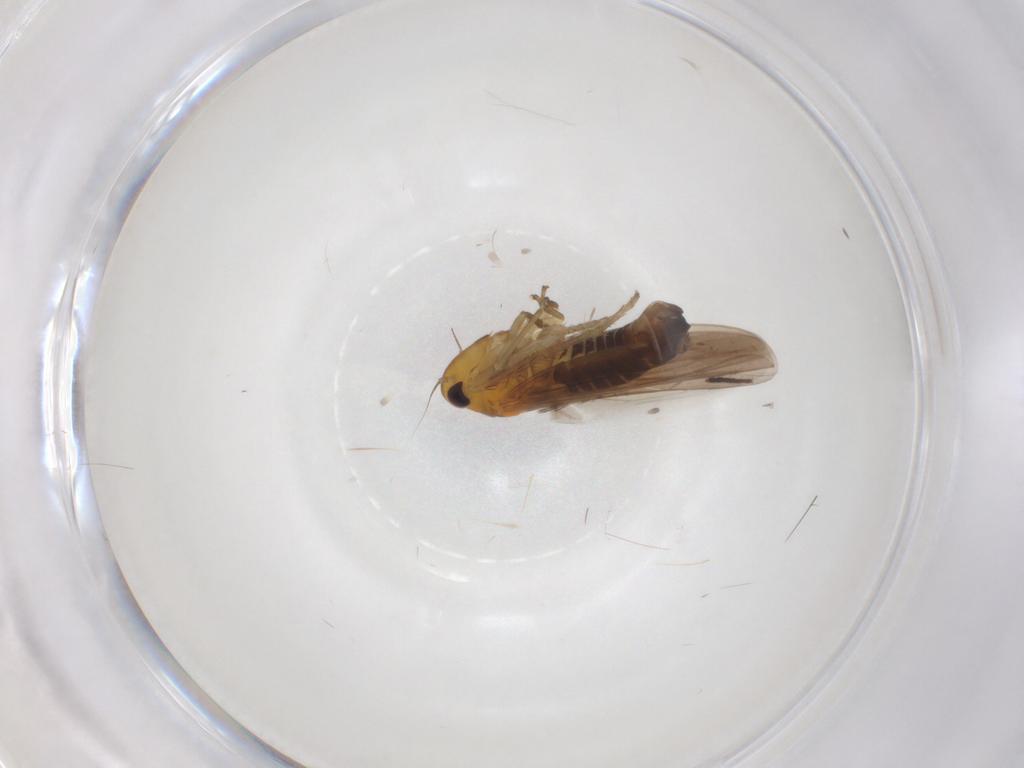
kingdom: Animalia
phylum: Arthropoda
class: Insecta
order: Hemiptera
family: Cicadellidae
